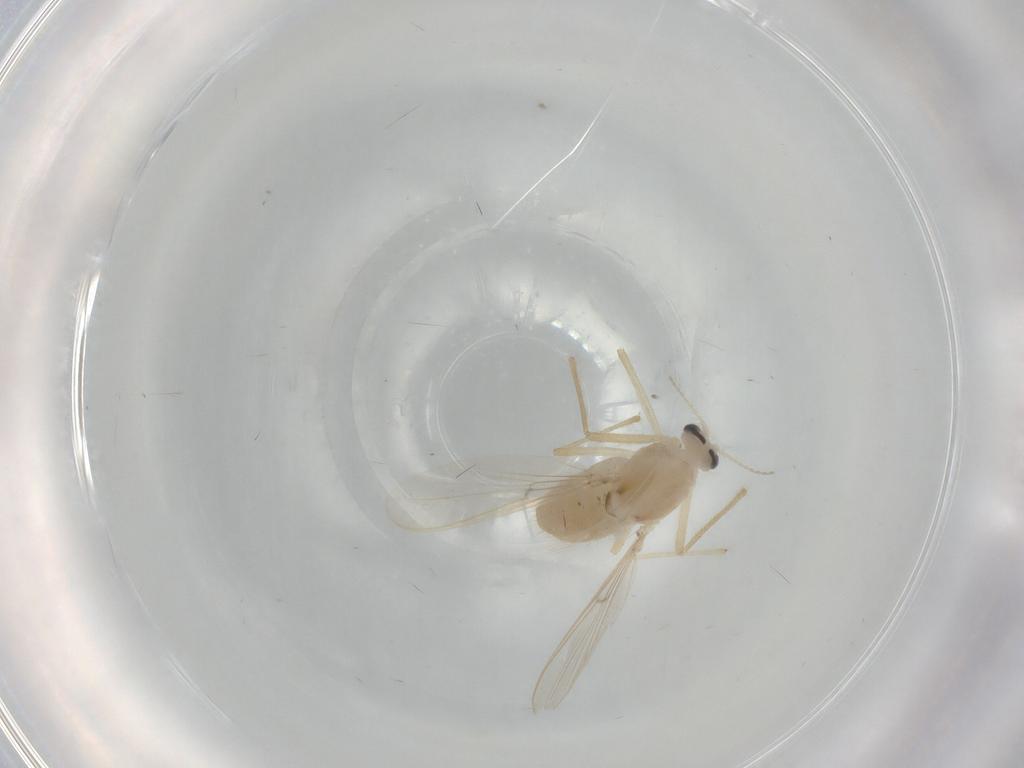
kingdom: Animalia
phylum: Arthropoda
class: Insecta
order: Diptera
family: Chironomidae
